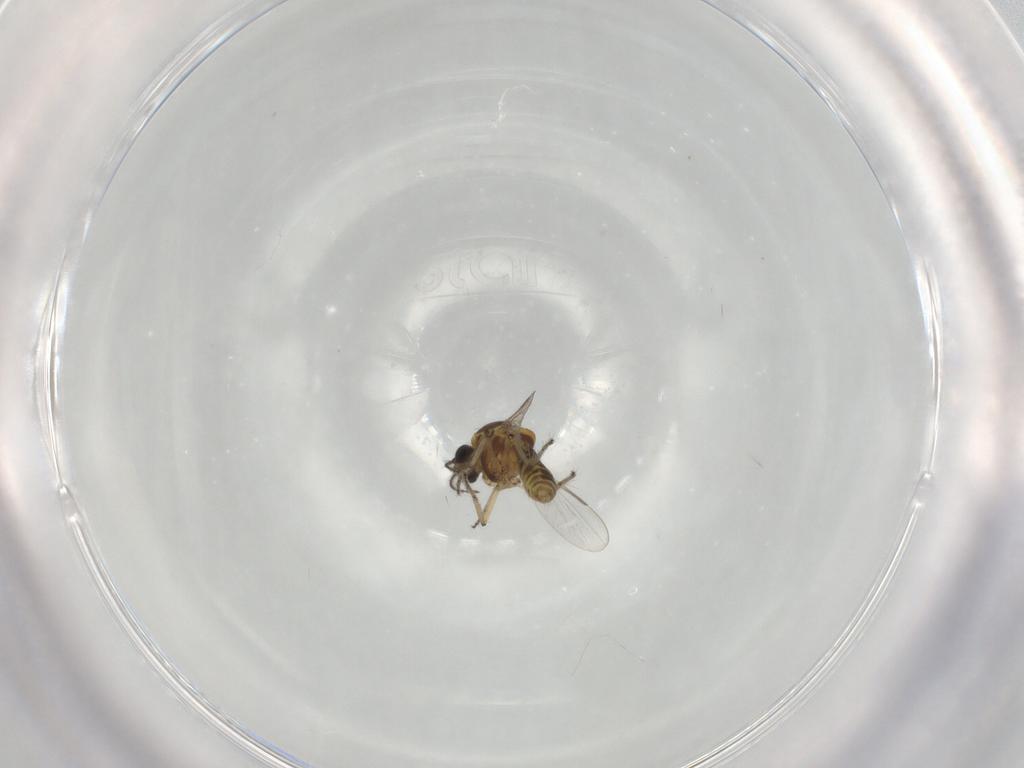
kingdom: Animalia
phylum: Arthropoda
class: Insecta
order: Diptera
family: Ceratopogonidae
